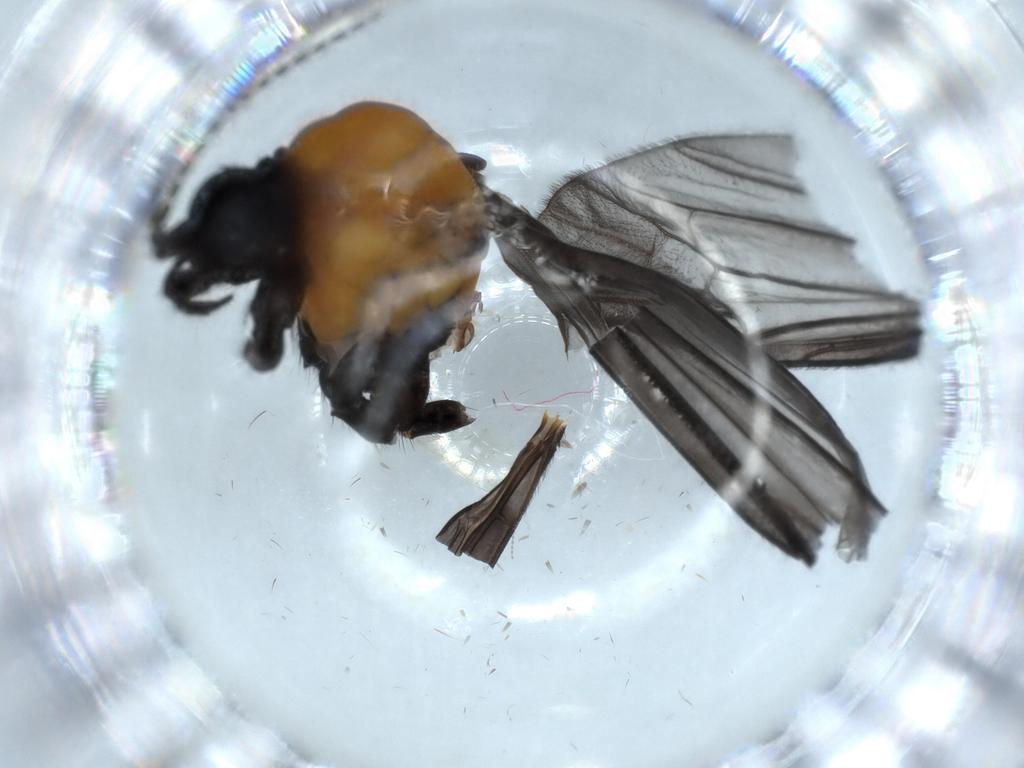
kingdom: Animalia
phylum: Arthropoda
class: Insecta
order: Diptera
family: Limoniidae
